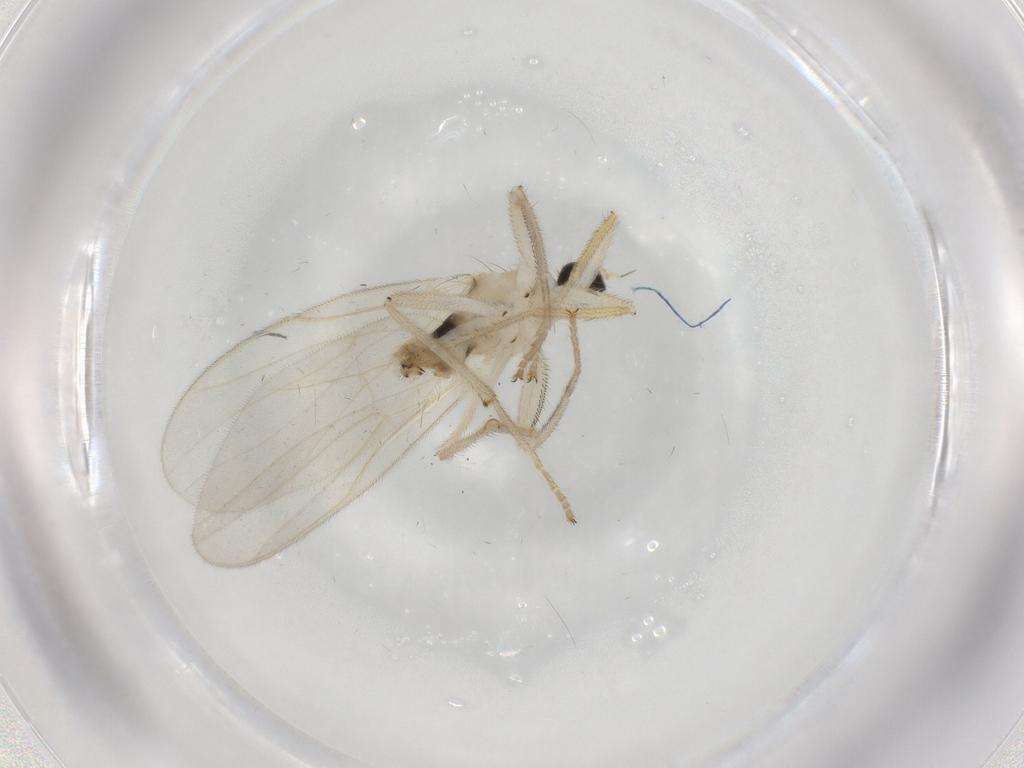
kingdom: Animalia
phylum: Arthropoda
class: Insecta
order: Diptera
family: Hybotidae
